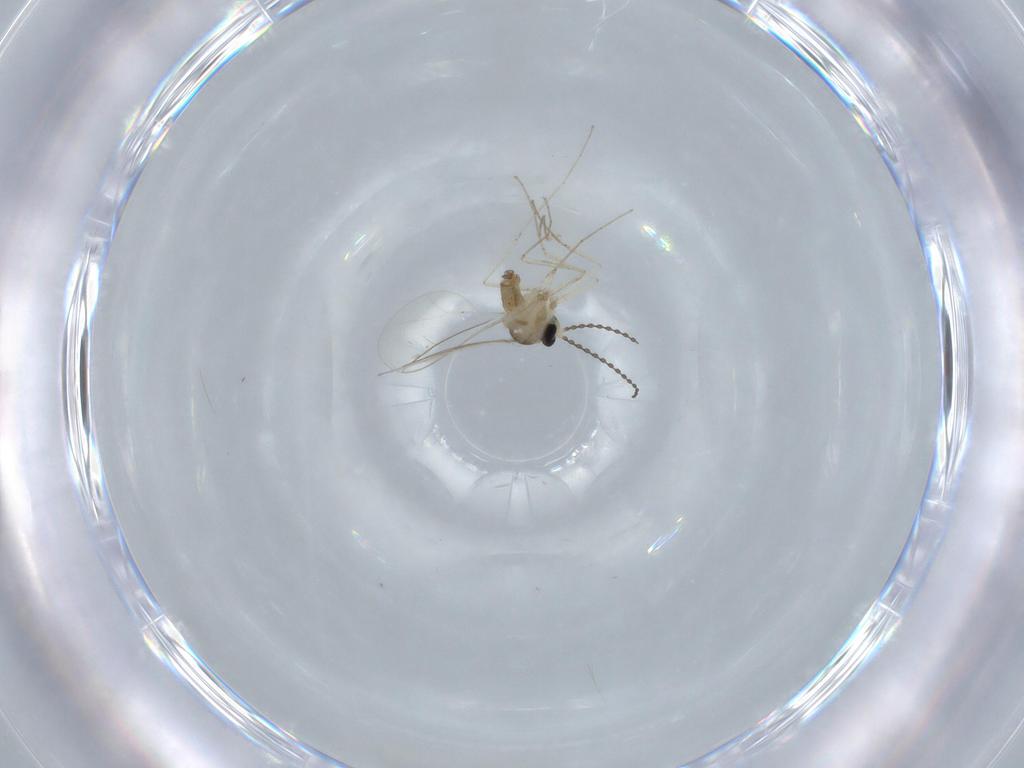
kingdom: Animalia
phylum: Arthropoda
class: Insecta
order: Diptera
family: Cecidomyiidae
